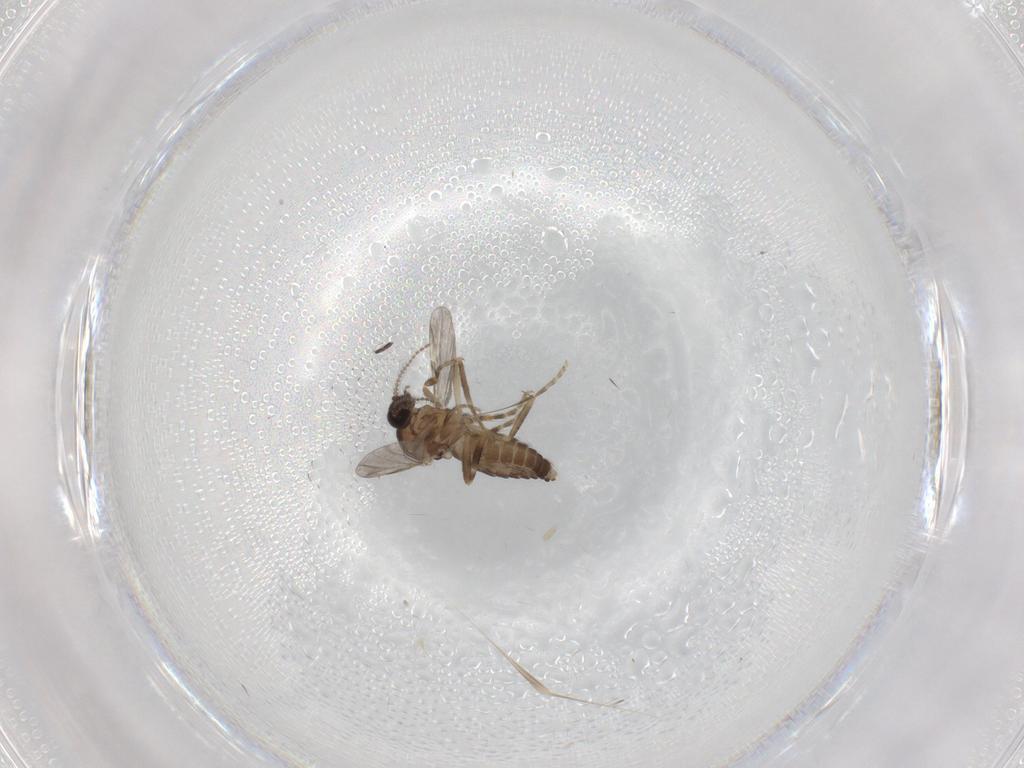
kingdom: Animalia
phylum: Arthropoda
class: Insecta
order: Diptera
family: Ceratopogonidae
